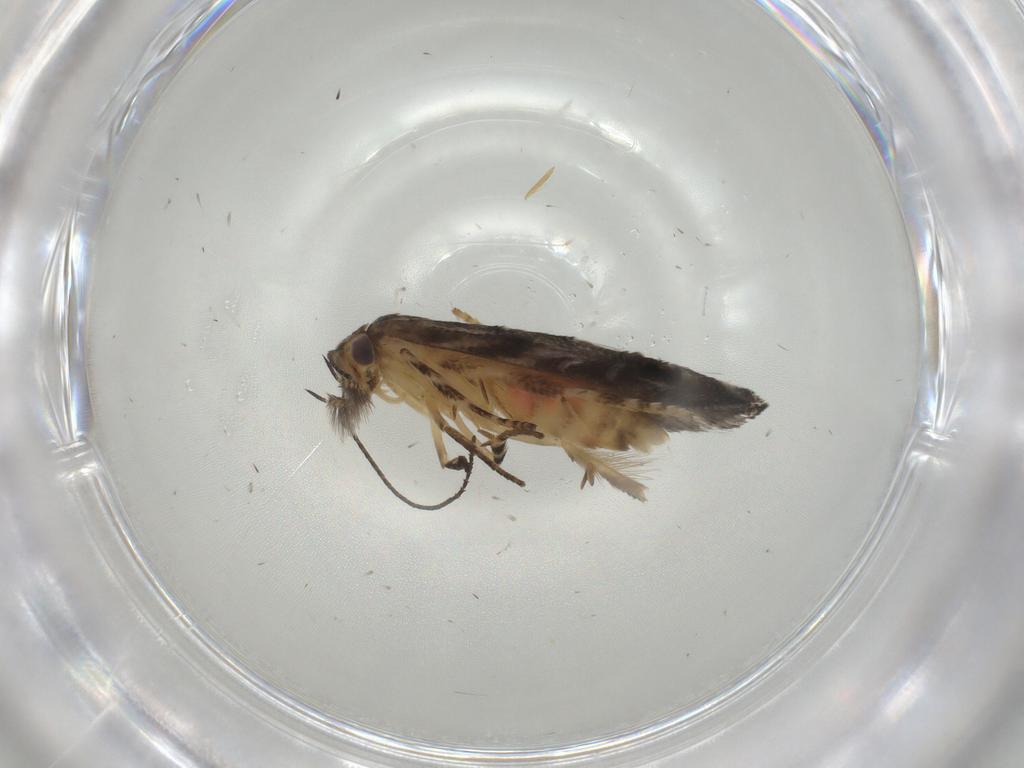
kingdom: Animalia
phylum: Arthropoda
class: Insecta
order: Lepidoptera
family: Elachistidae
